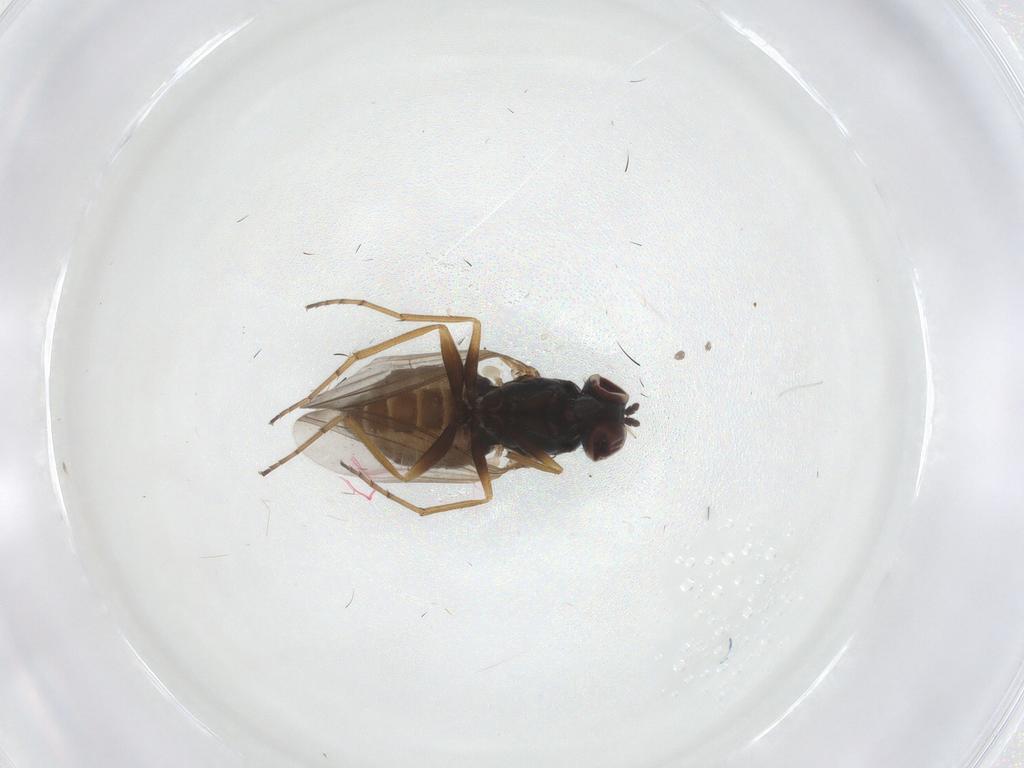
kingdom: Animalia
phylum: Arthropoda
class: Insecta
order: Diptera
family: Dolichopodidae
